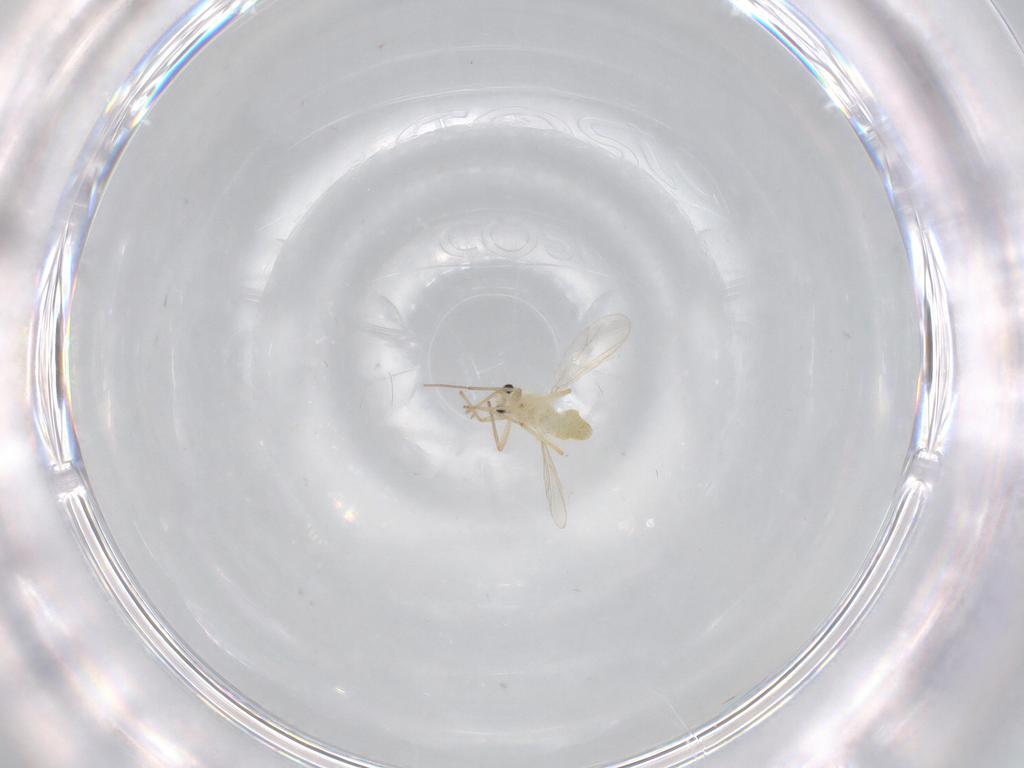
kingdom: Animalia
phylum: Arthropoda
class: Insecta
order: Diptera
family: Chironomidae
